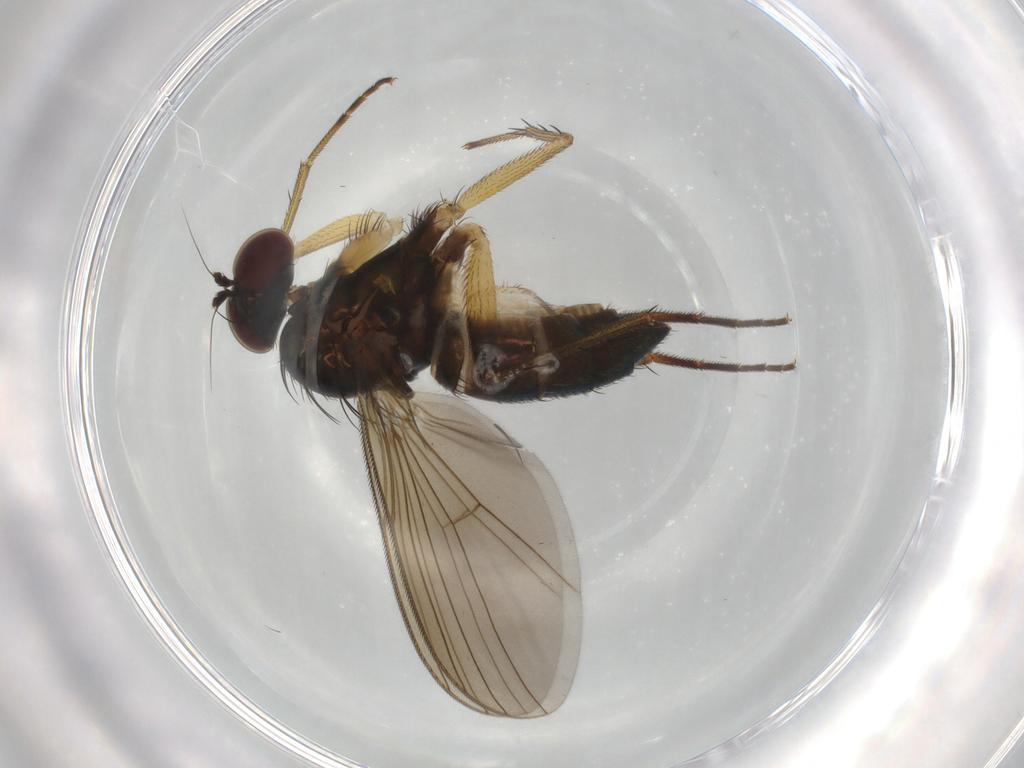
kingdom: Animalia
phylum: Arthropoda
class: Insecta
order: Diptera
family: Dolichopodidae
